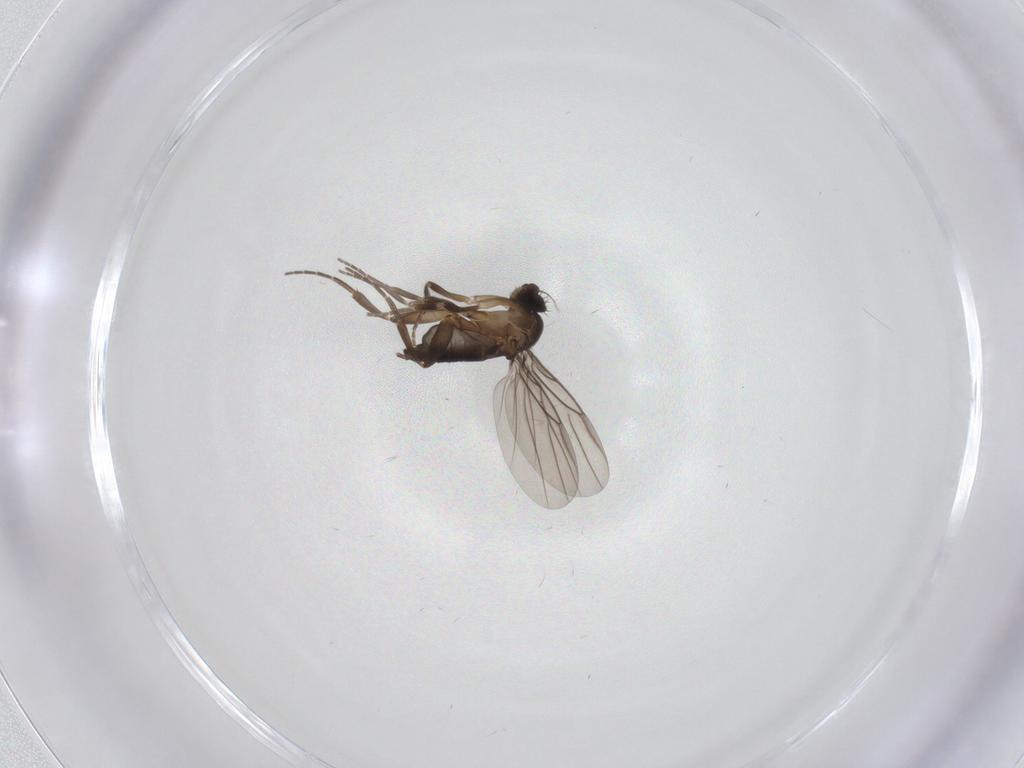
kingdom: Animalia
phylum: Arthropoda
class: Insecta
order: Diptera
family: Phoridae
